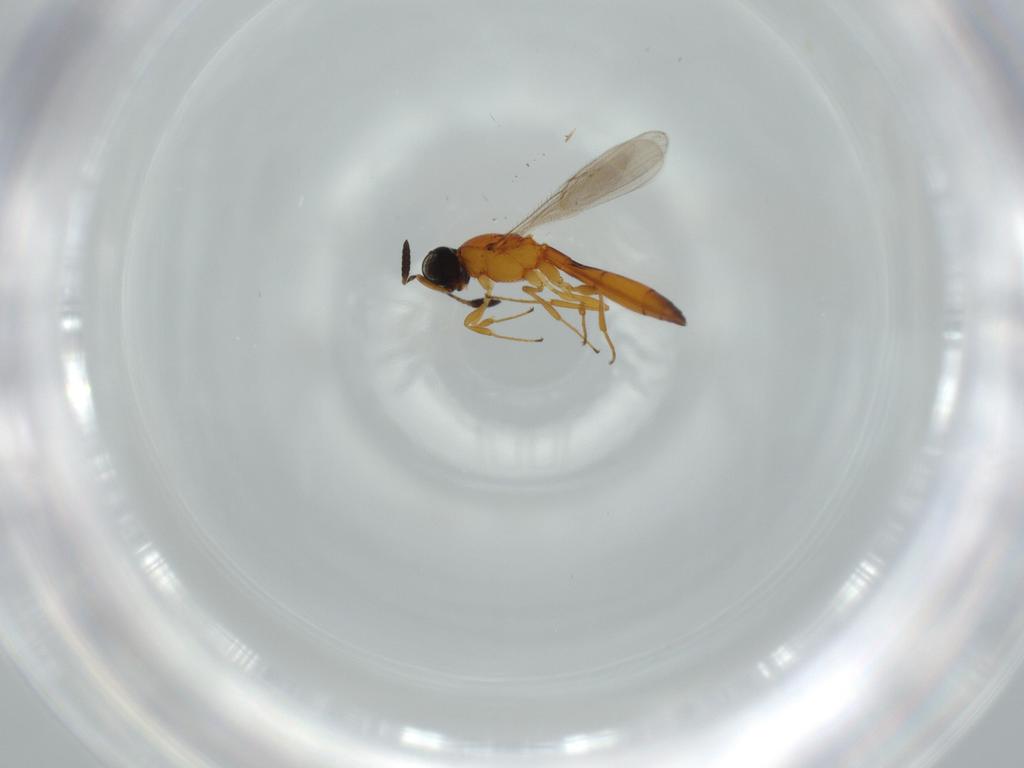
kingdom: Animalia
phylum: Arthropoda
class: Insecta
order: Hymenoptera
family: Scelionidae
